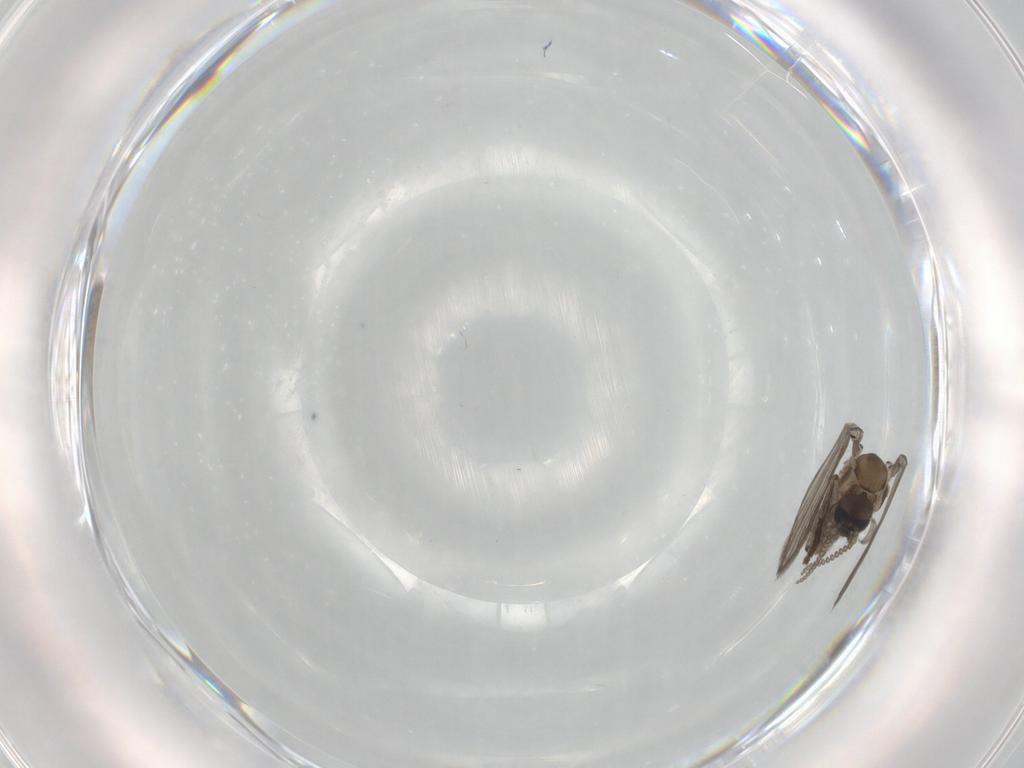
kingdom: Animalia
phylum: Arthropoda
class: Insecta
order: Diptera
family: Psychodidae
